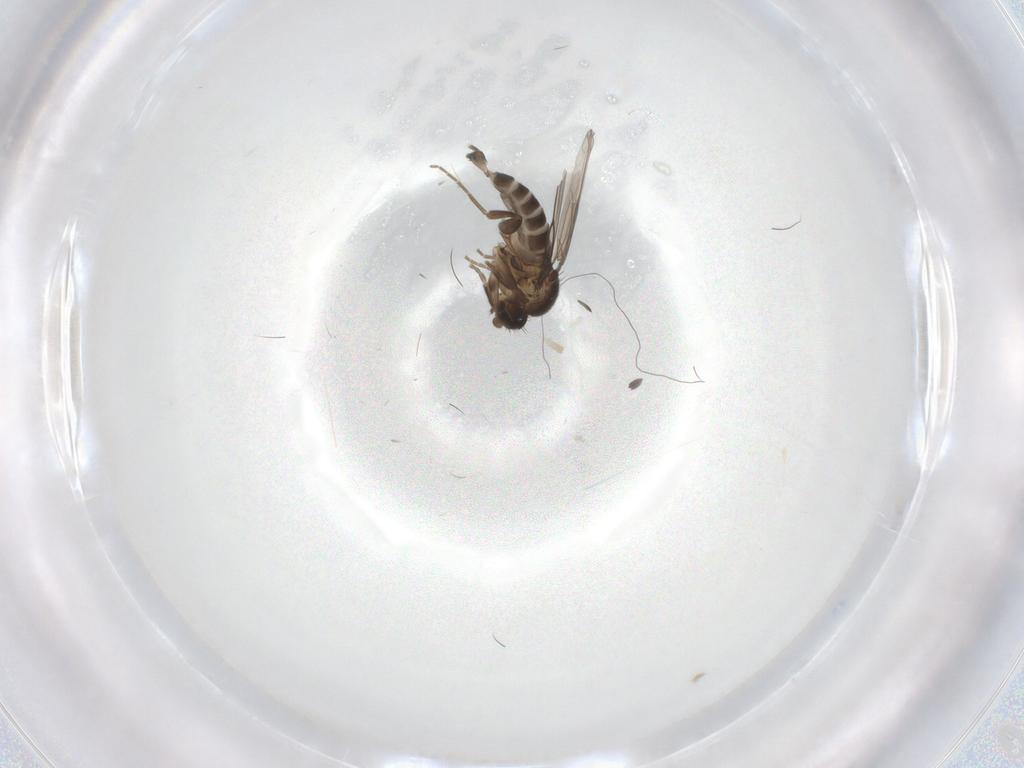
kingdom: Animalia
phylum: Arthropoda
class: Insecta
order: Diptera
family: Phoridae
